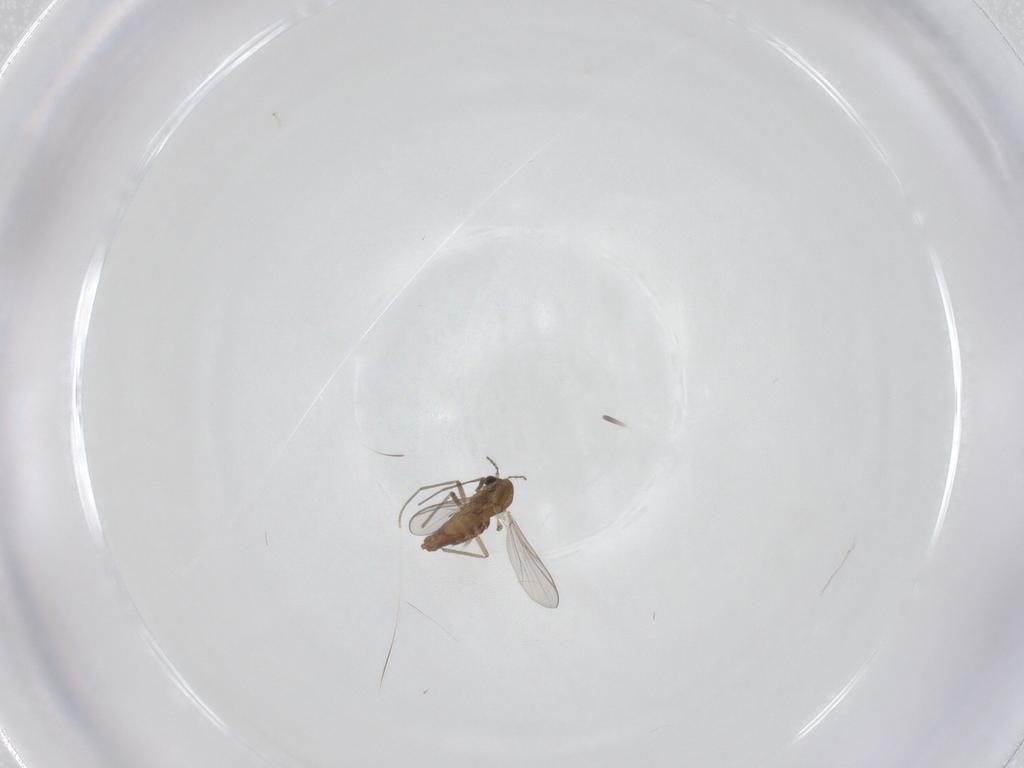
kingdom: Animalia
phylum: Arthropoda
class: Insecta
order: Diptera
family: Chironomidae
